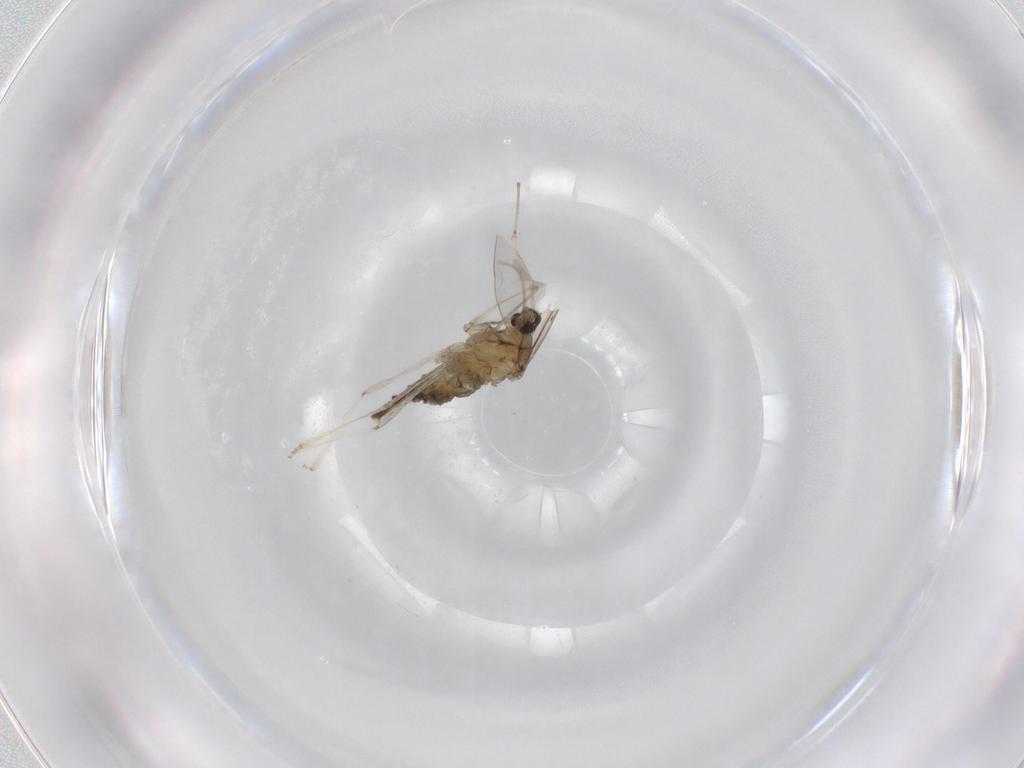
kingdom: Animalia
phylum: Arthropoda
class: Insecta
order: Diptera
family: Cecidomyiidae
